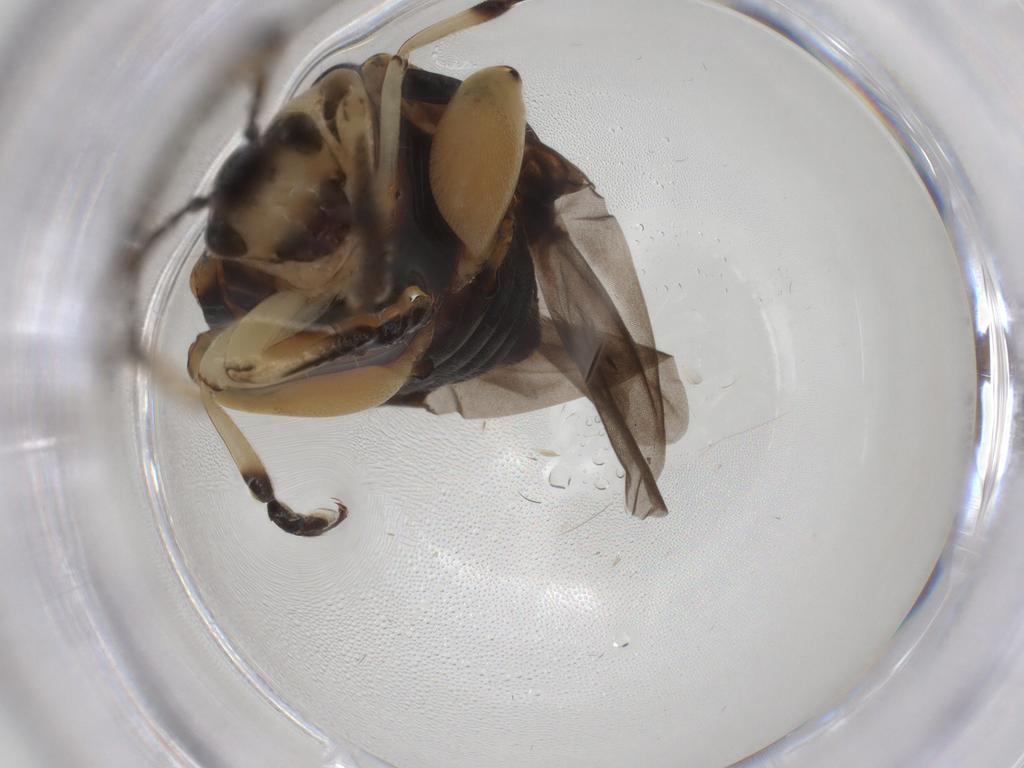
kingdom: Animalia
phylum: Arthropoda
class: Insecta
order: Coleoptera
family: Chrysomelidae
